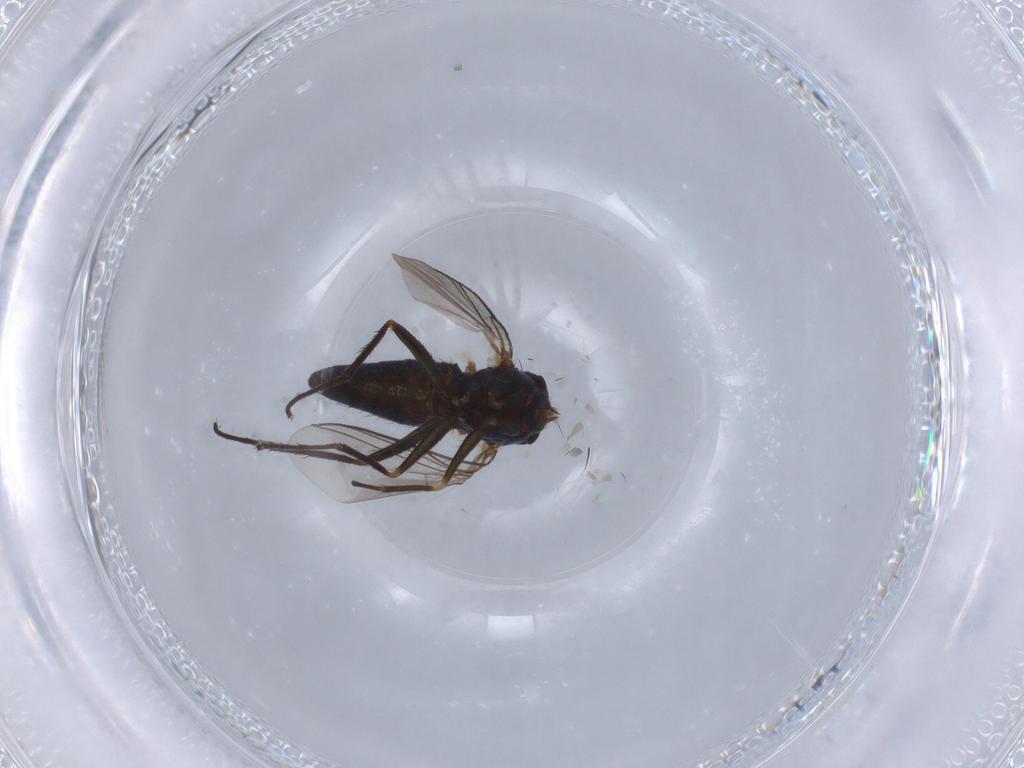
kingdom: Animalia
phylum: Arthropoda
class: Insecta
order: Diptera
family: Dolichopodidae
